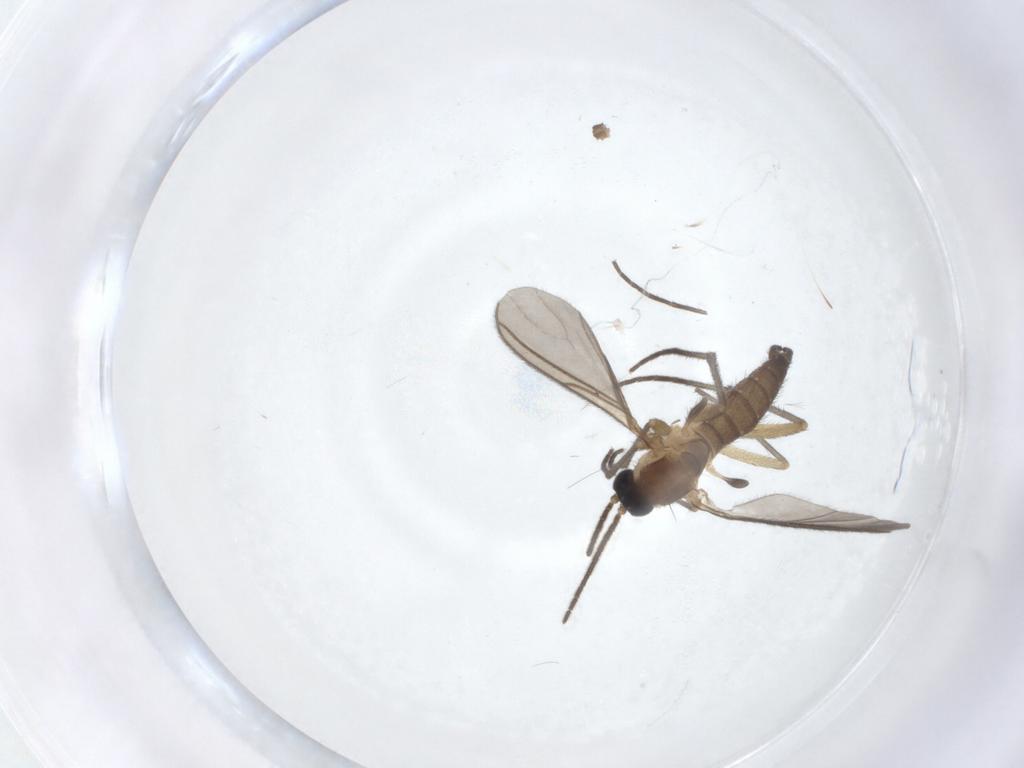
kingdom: Animalia
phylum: Arthropoda
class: Insecta
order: Diptera
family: Sciaridae
